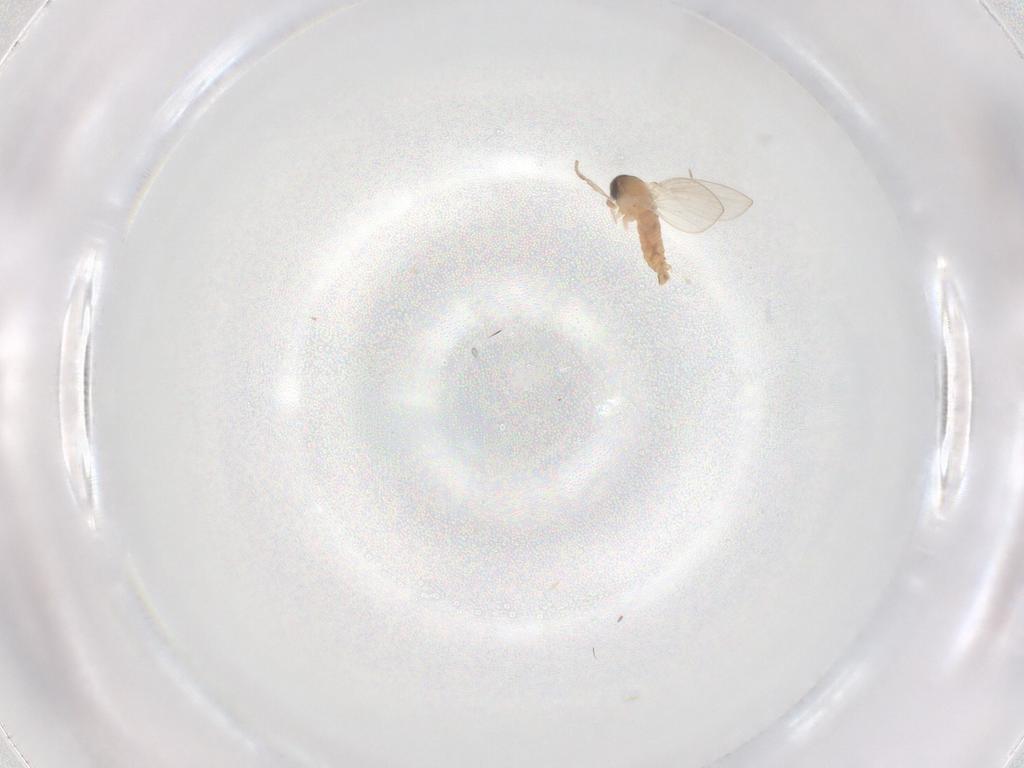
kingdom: Animalia
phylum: Arthropoda
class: Insecta
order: Diptera
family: Psychodidae
